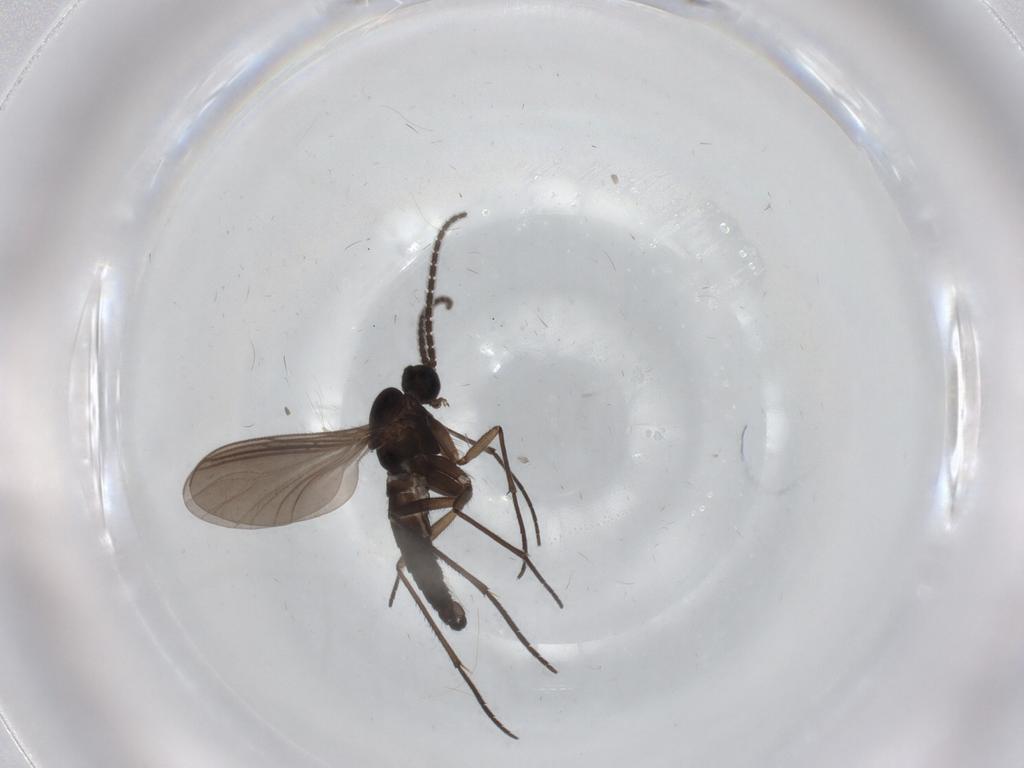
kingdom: Animalia
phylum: Arthropoda
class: Insecta
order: Diptera
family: Sciaridae
